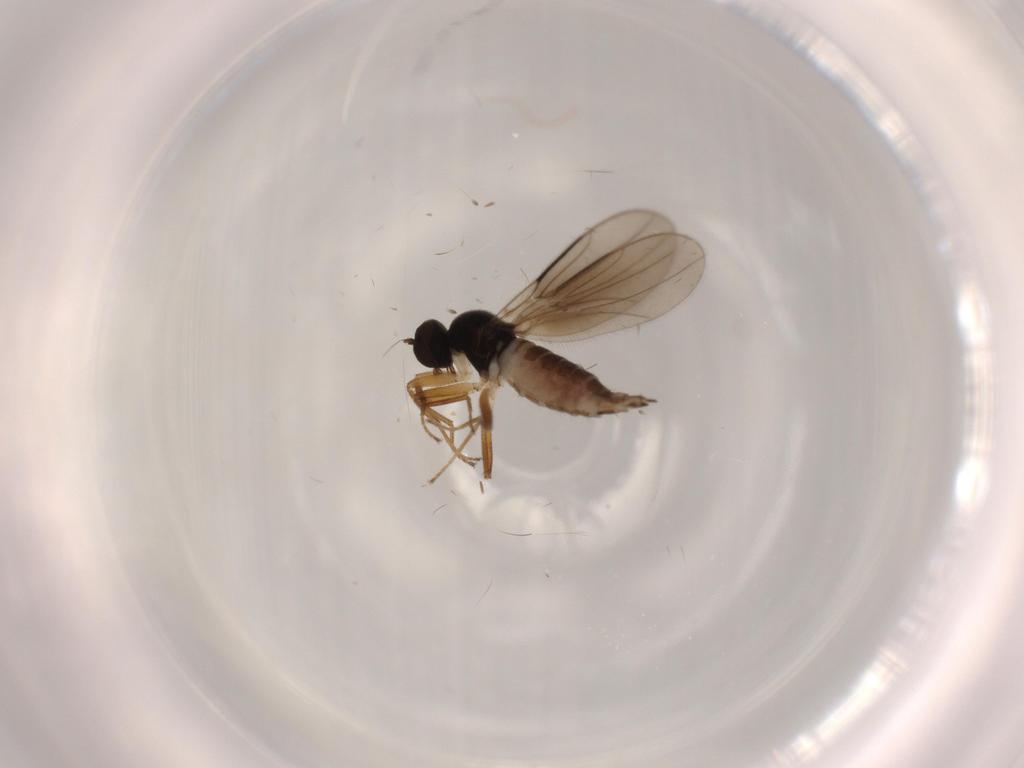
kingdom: Animalia
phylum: Arthropoda
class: Insecta
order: Diptera
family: Hybotidae
